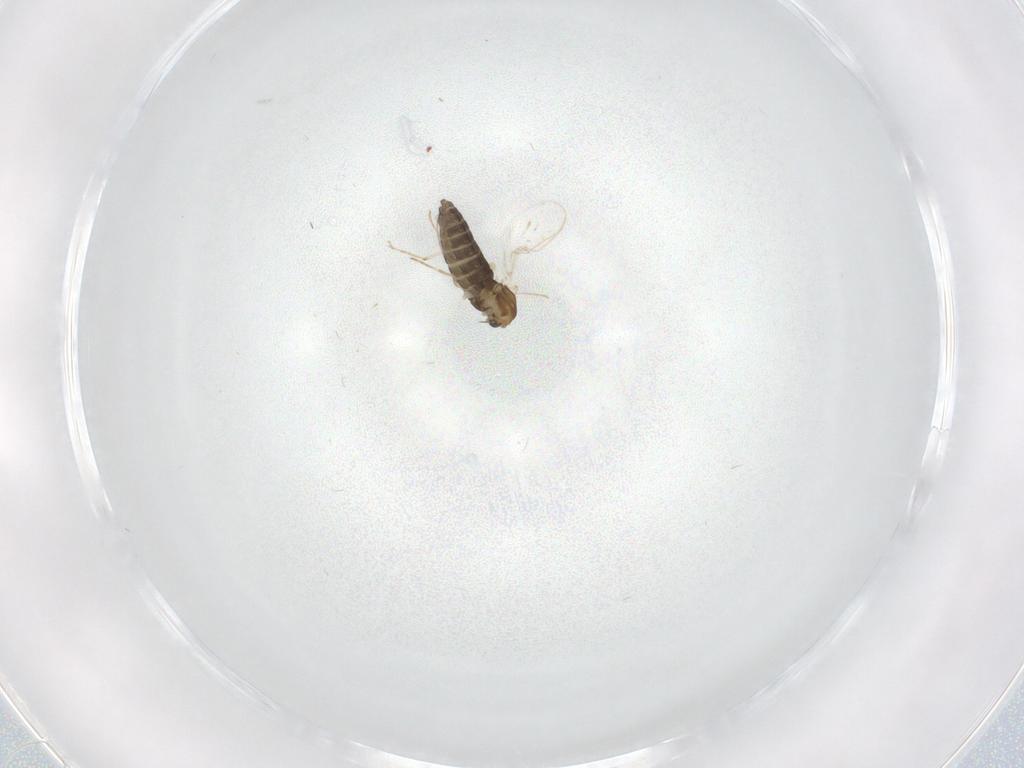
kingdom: Animalia
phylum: Arthropoda
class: Insecta
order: Diptera
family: Chironomidae
